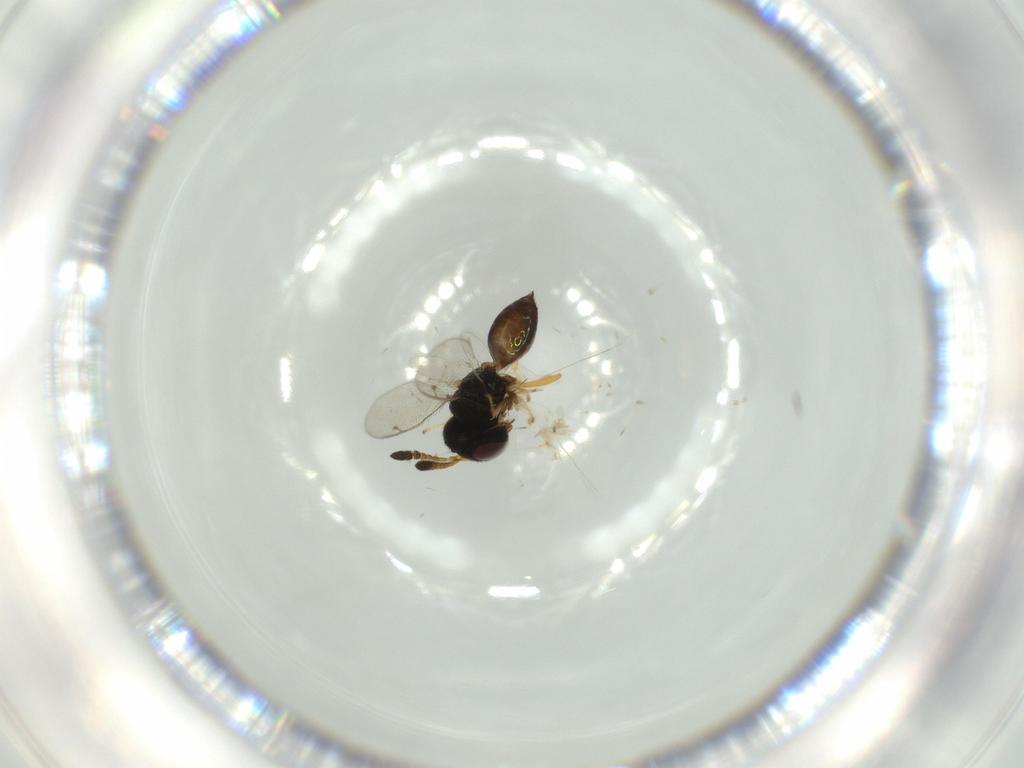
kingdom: Animalia
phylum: Arthropoda
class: Insecta
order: Hymenoptera
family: Pteromalidae
